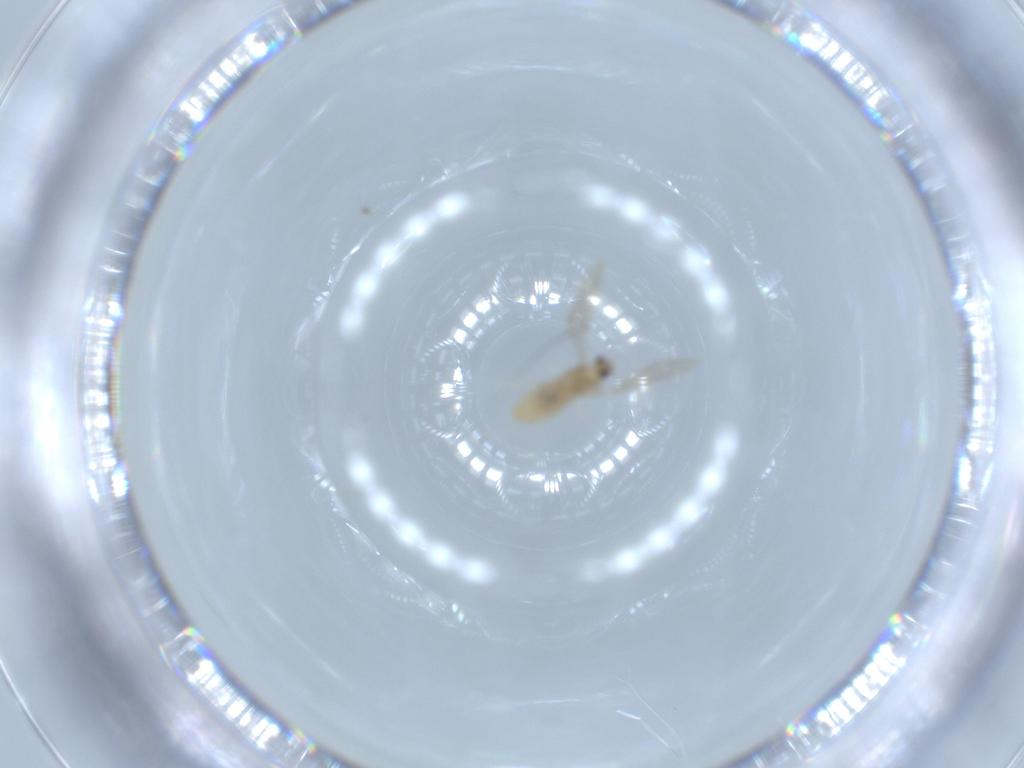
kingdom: Animalia
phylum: Arthropoda
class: Insecta
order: Diptera
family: Cecidomyiidae
